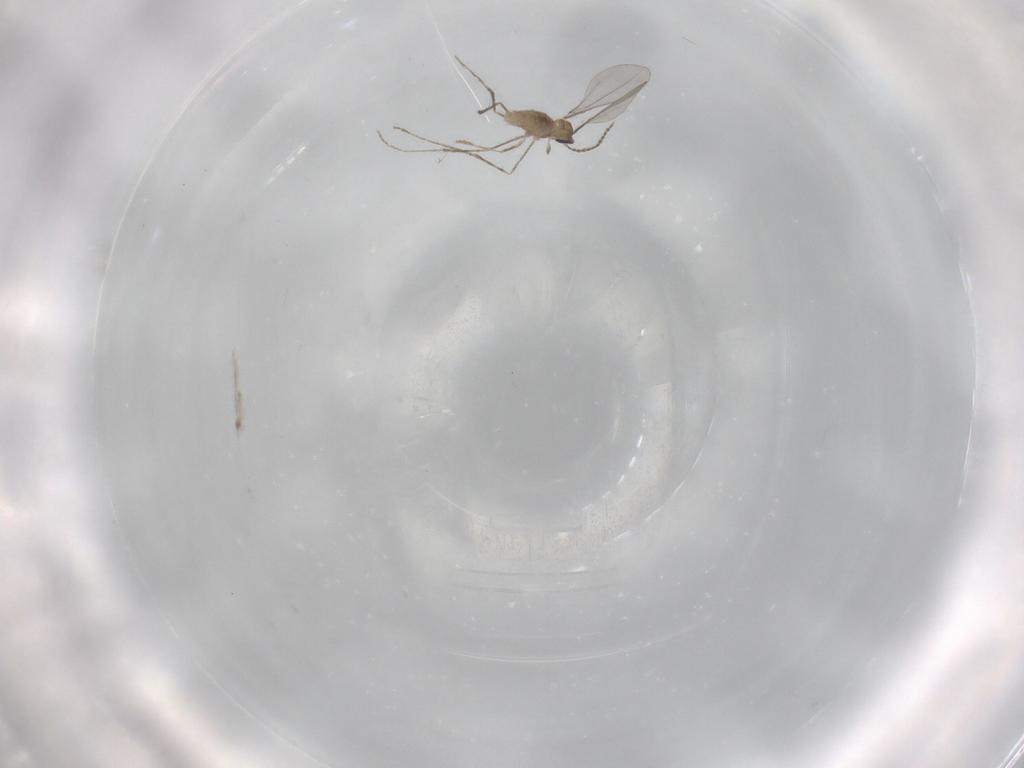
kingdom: Animalia
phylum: Arthropoda
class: Insecta
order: Diptera
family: Cecidomyiidae
